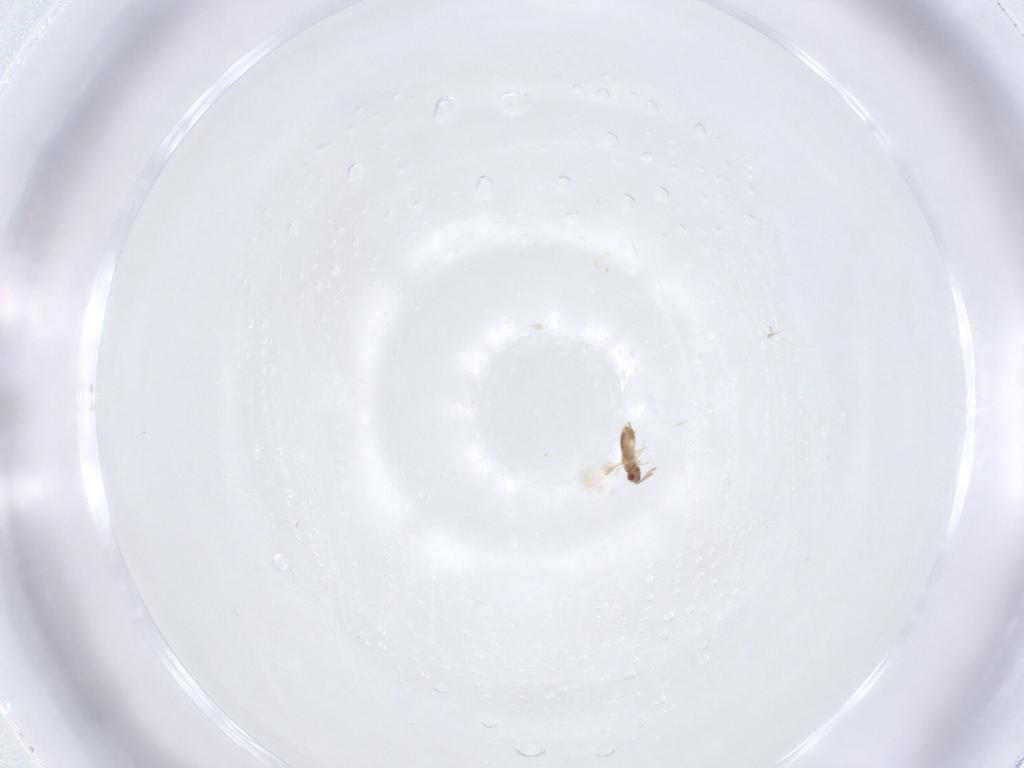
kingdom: Animalia
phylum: Arthropoda
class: Insecta
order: Hymenoptera
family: Aphelinidae
